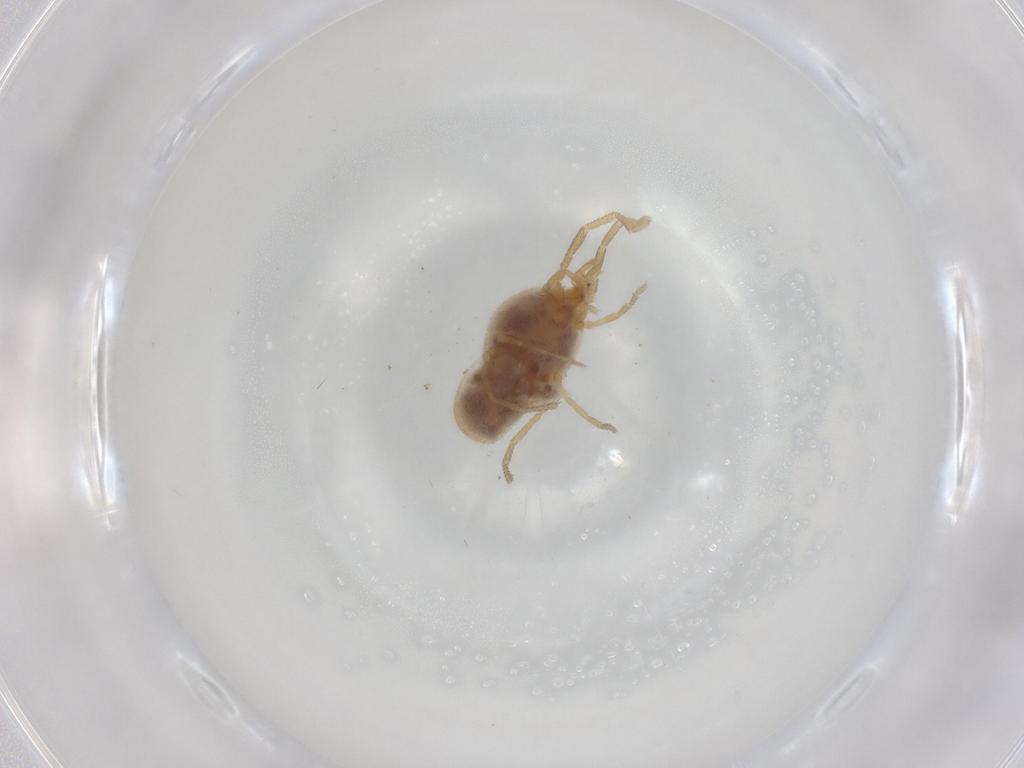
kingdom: Animalia
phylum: Arthropoda
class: Arachnida
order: Trombidiformes
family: Erythraeidae
